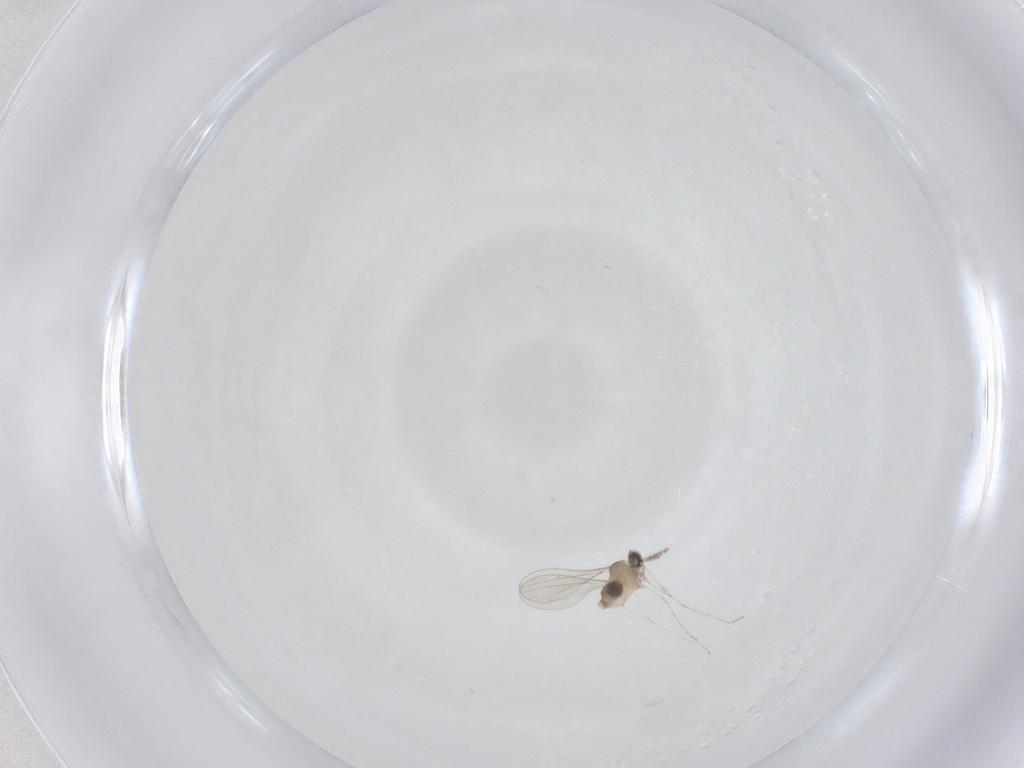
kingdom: Animalia
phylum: Arthropoda
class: Insecta
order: Diptera
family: Cecidomyiidae
